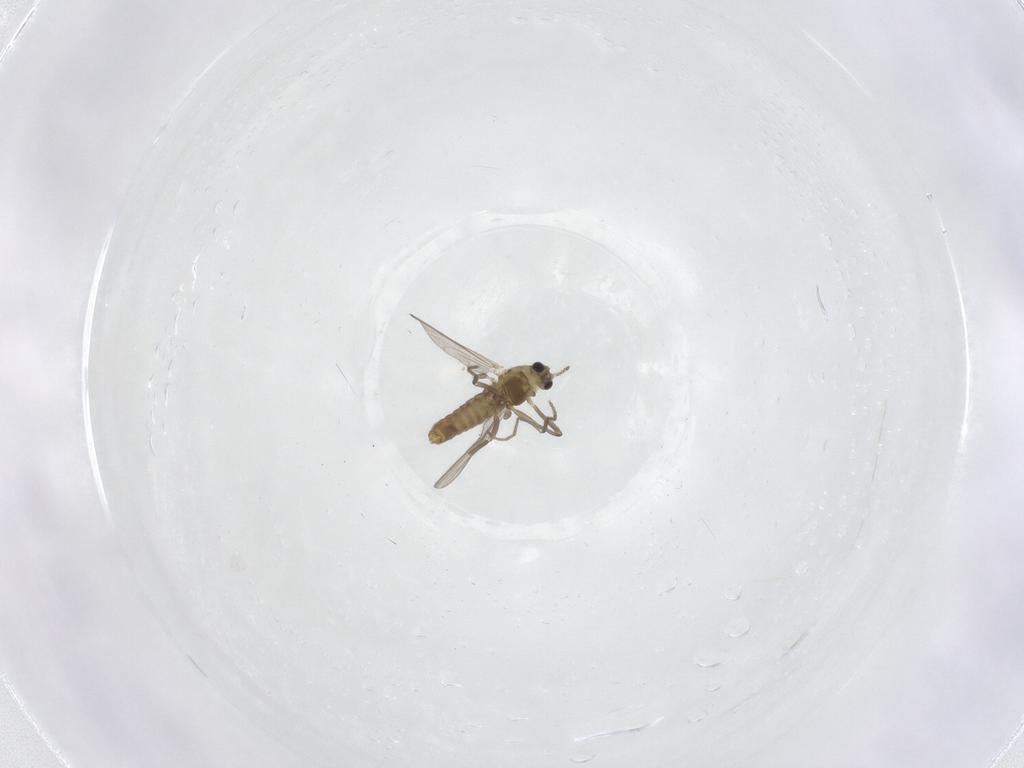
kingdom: Animalia
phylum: Arthropoda
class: Insecta
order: Diptera
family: Chironomidae
